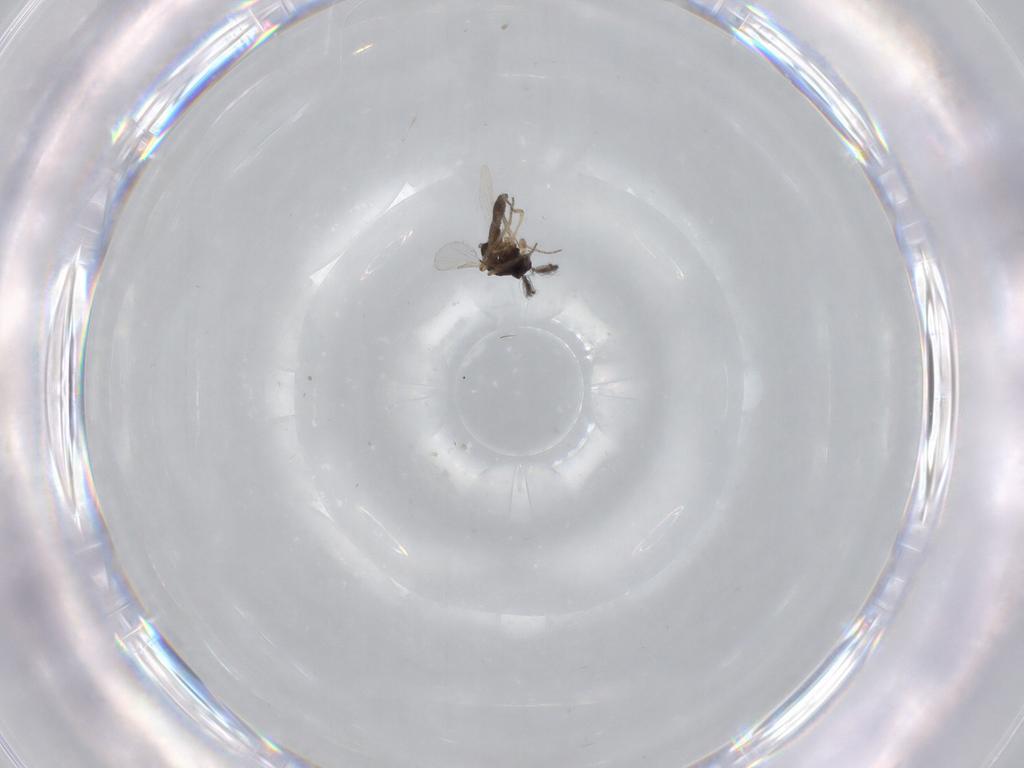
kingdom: Animalia
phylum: Arthropoda
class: Insecta
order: Diptera
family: Ceratopogonidae
